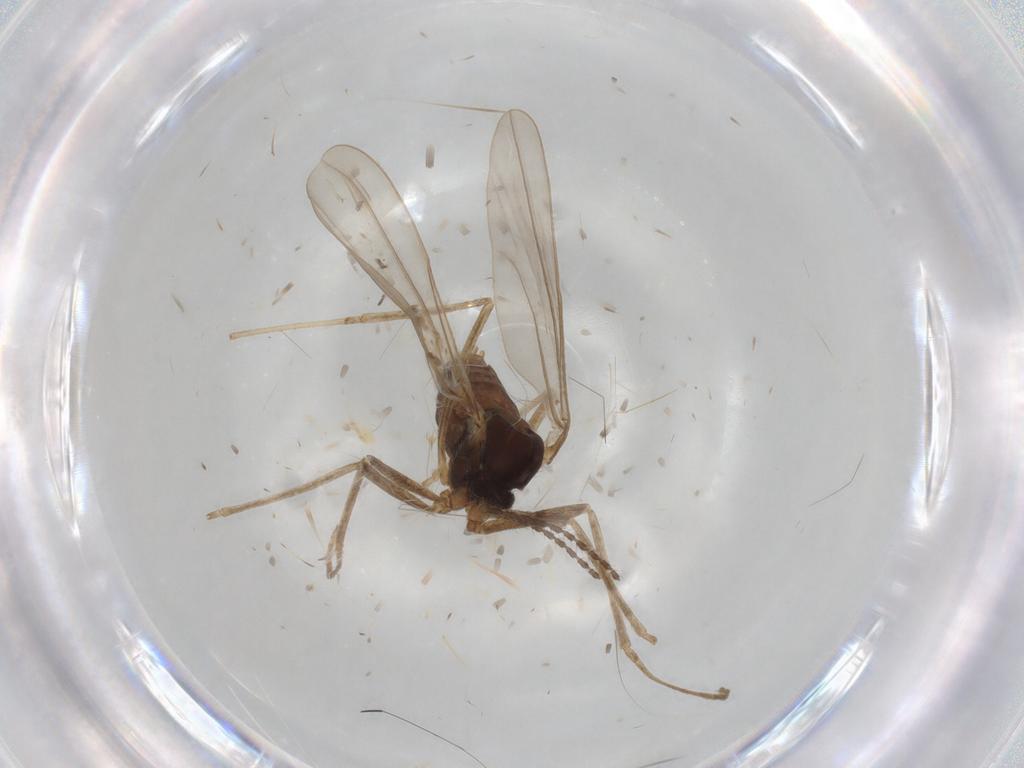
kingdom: Animalia
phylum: Arthropoda
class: Insecta
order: Diptera
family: Cecidomyiidae
